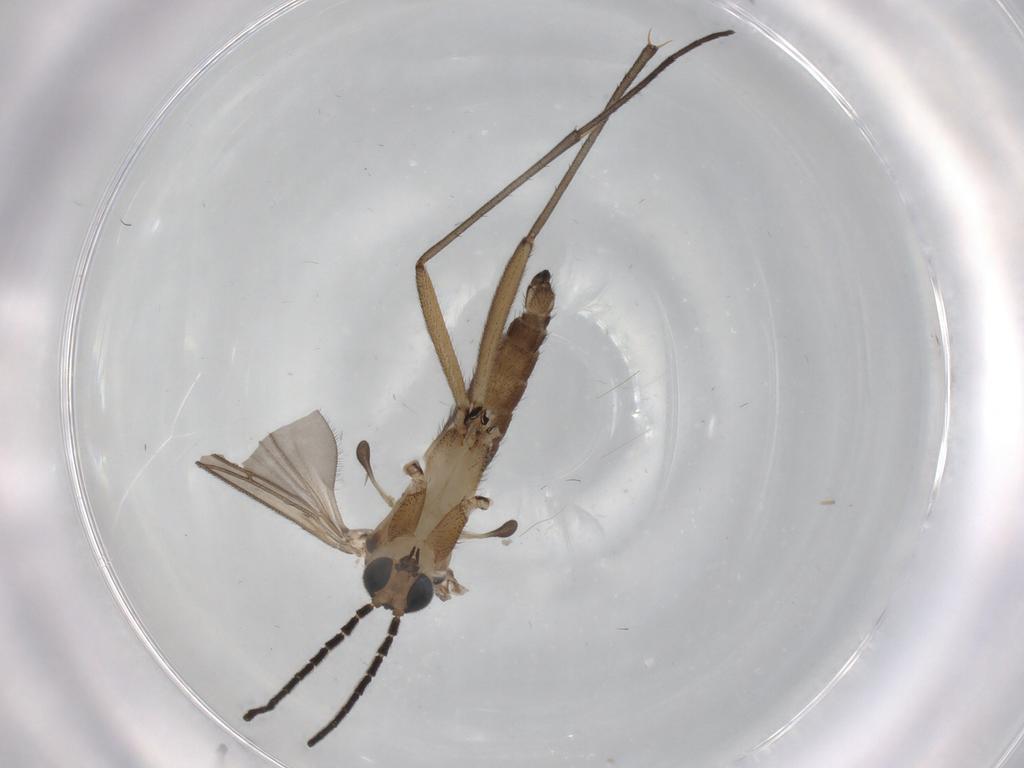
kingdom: Animalia
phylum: Arthropoda
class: Insecta
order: Diptera
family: Phoridae
